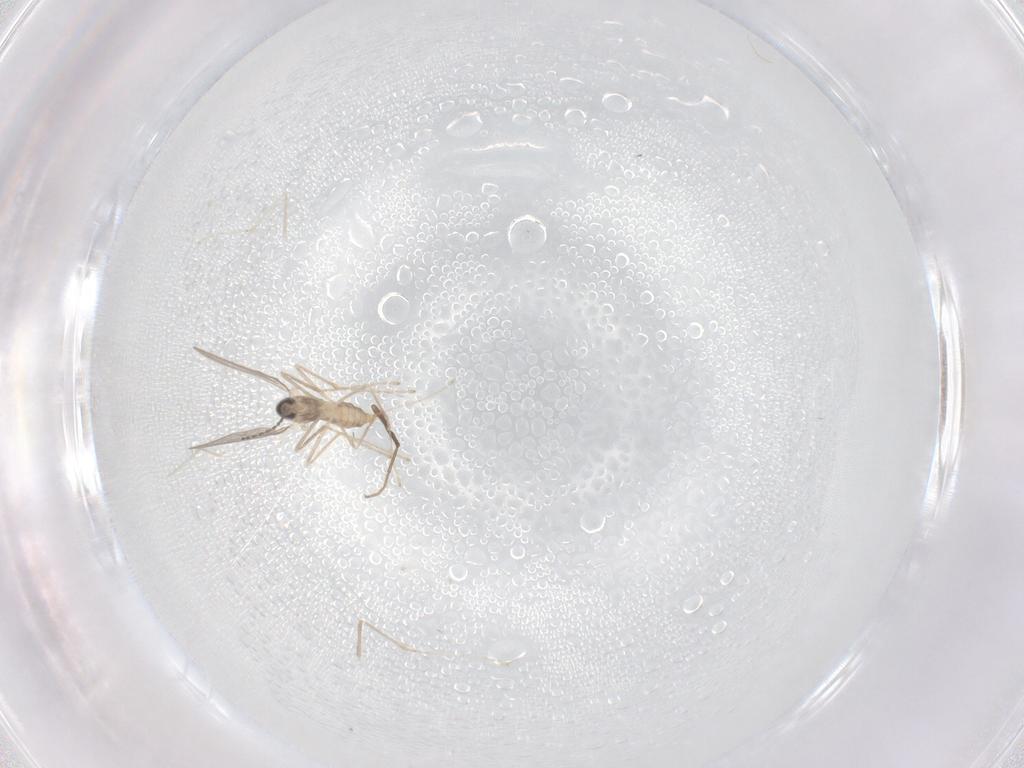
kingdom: Animalia
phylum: Arthropoda
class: Insecta
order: Diptera
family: Cecidomyiidae
